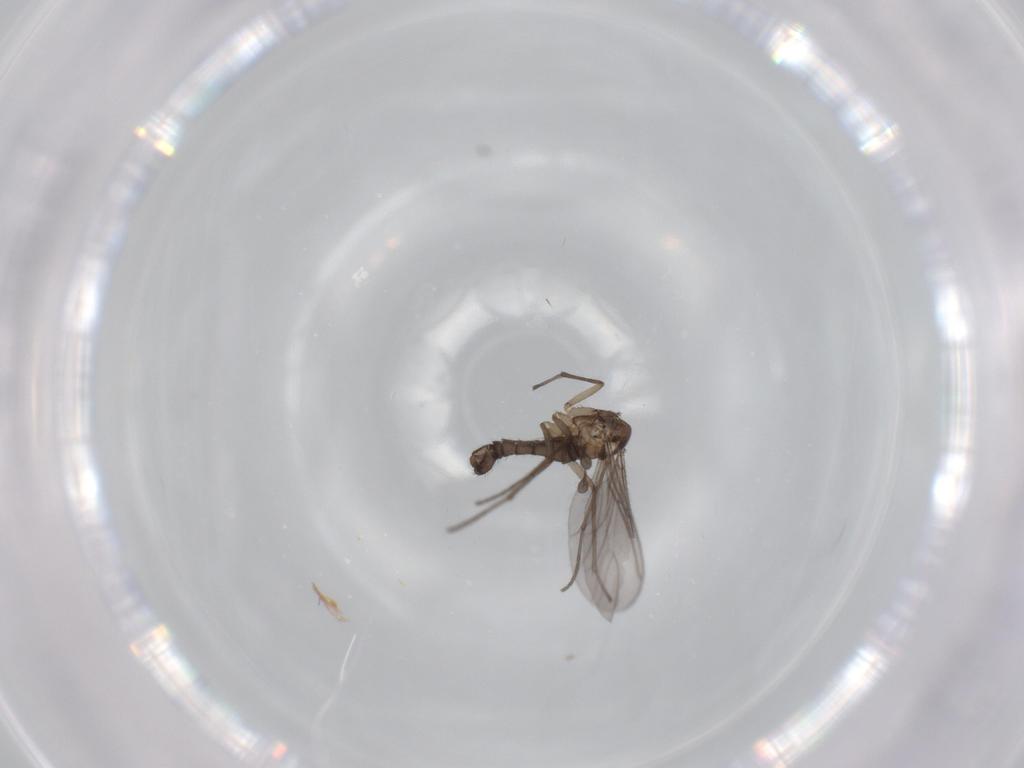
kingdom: Animalia
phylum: Arthropoda
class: Insecta
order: Diptera
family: Sciaridae
